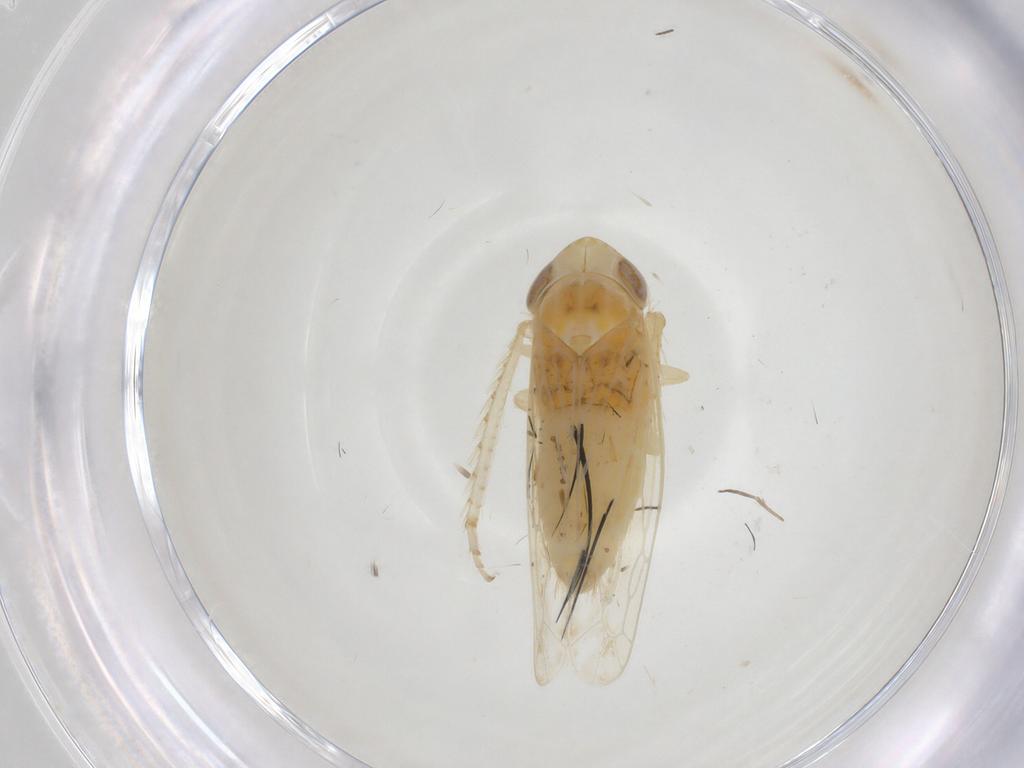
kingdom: Animalia
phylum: Arthropoda
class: Insecta
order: Hemiptera
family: Cicadellidae
